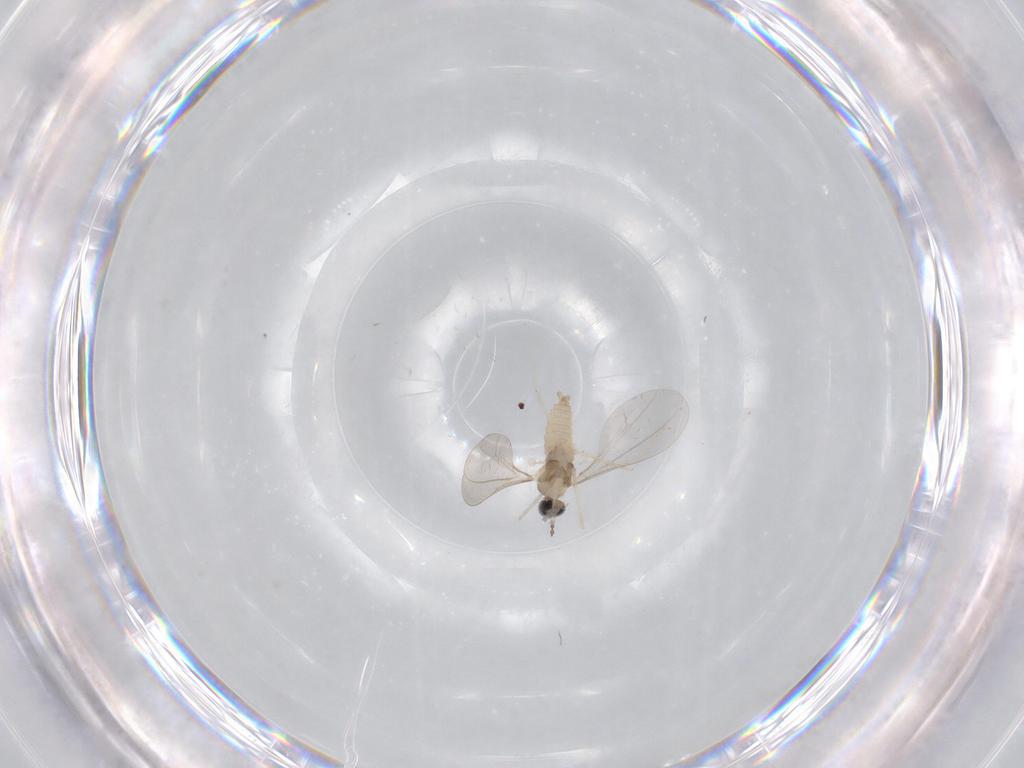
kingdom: Animalia
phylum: Arthropoda
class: Insecta
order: Diptera
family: Cecidomyiidae
